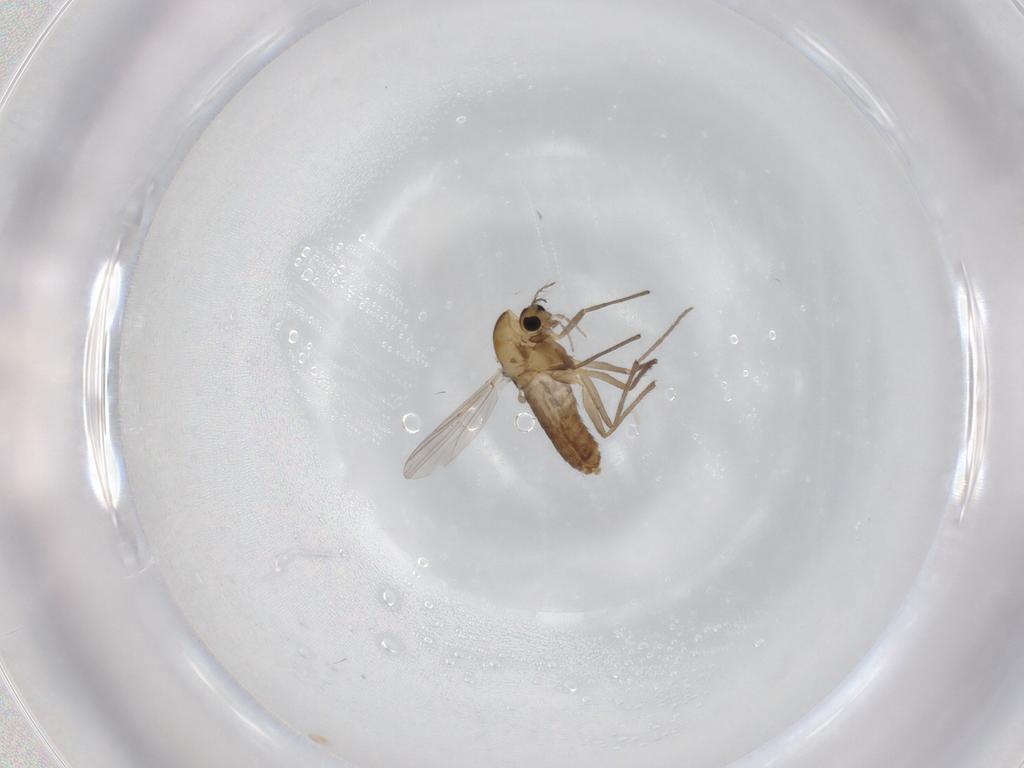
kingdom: Animalia
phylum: Arthropoda
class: Insecta
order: Diptera
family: Chironomidae
